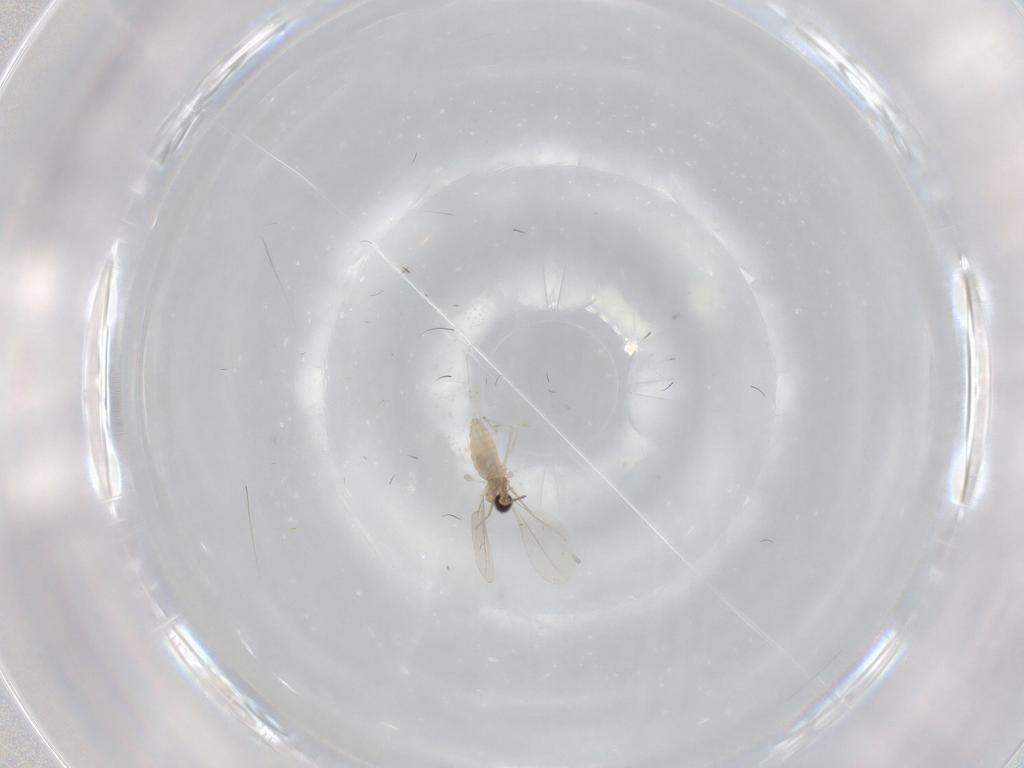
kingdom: Animalia
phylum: Arthropoda
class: Insecta
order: Diptera
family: Cecidomyiidae
